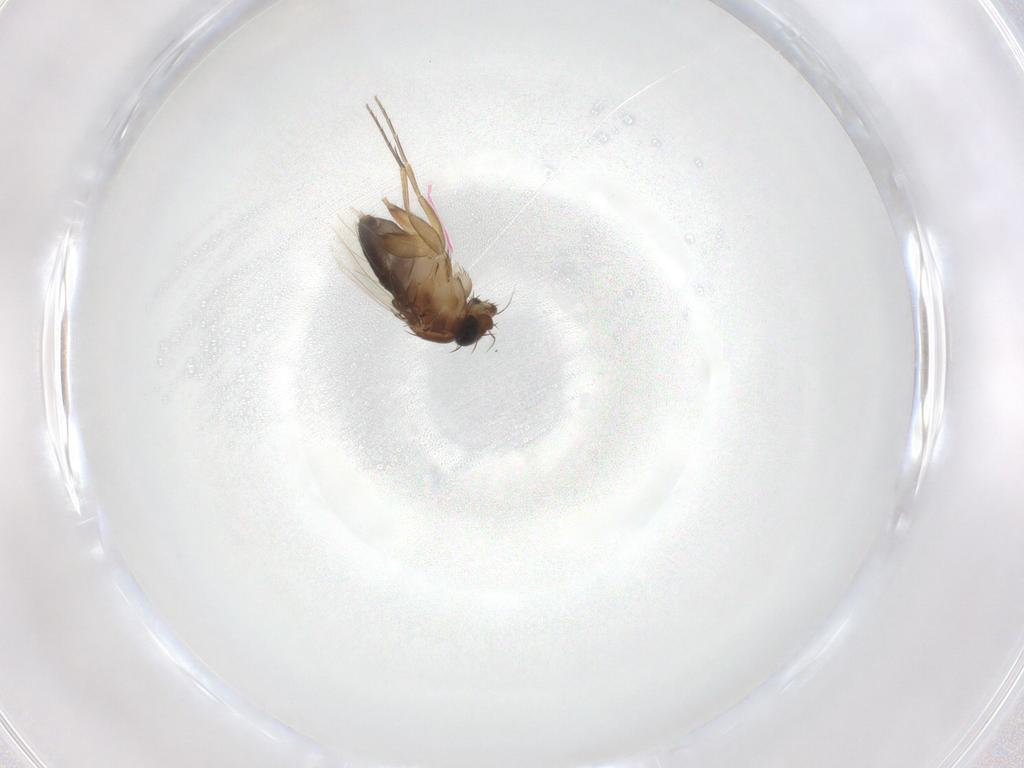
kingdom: Animalia
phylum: Arthropoda
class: Insecta
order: Diptera
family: Phoridae
